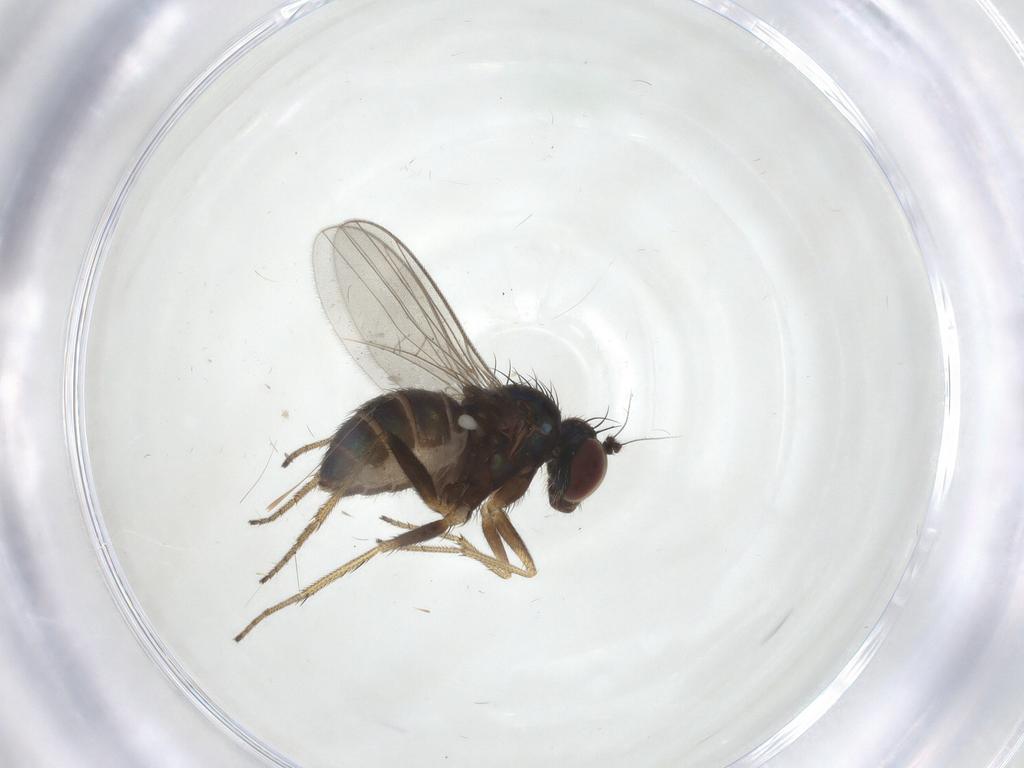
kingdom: Animalia
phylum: Arthropoda
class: Insecta
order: Diptera
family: Dolichopodidae
